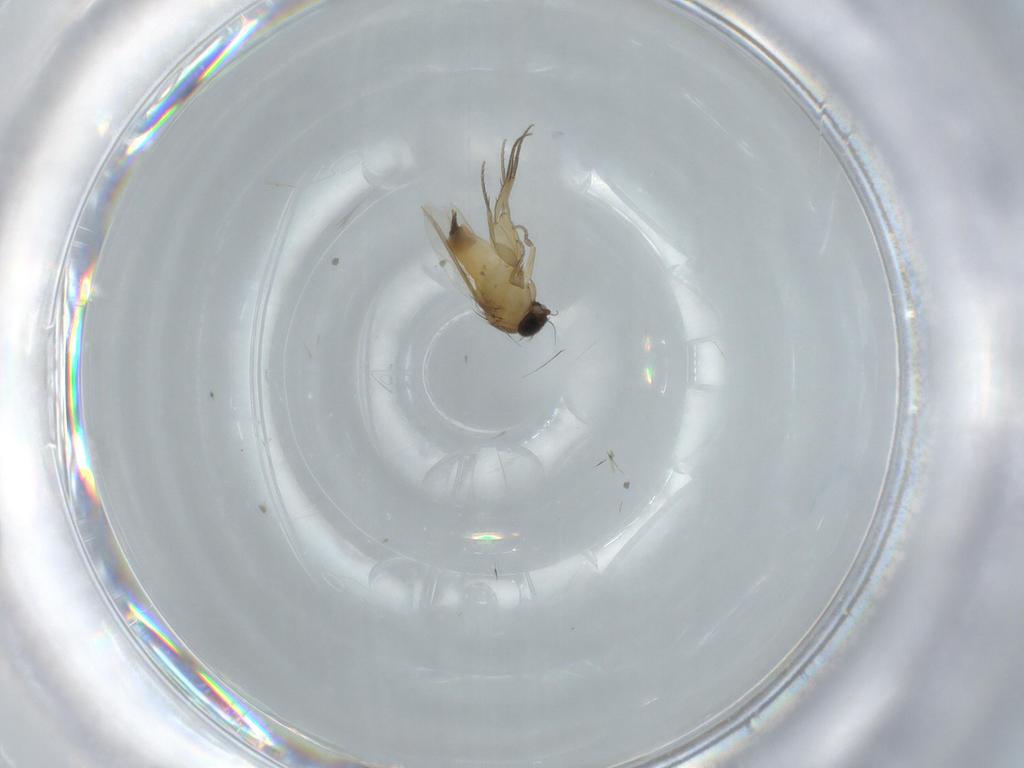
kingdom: Animalia
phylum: Arthropoda
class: Insecta
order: Diptera
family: Phoridae
